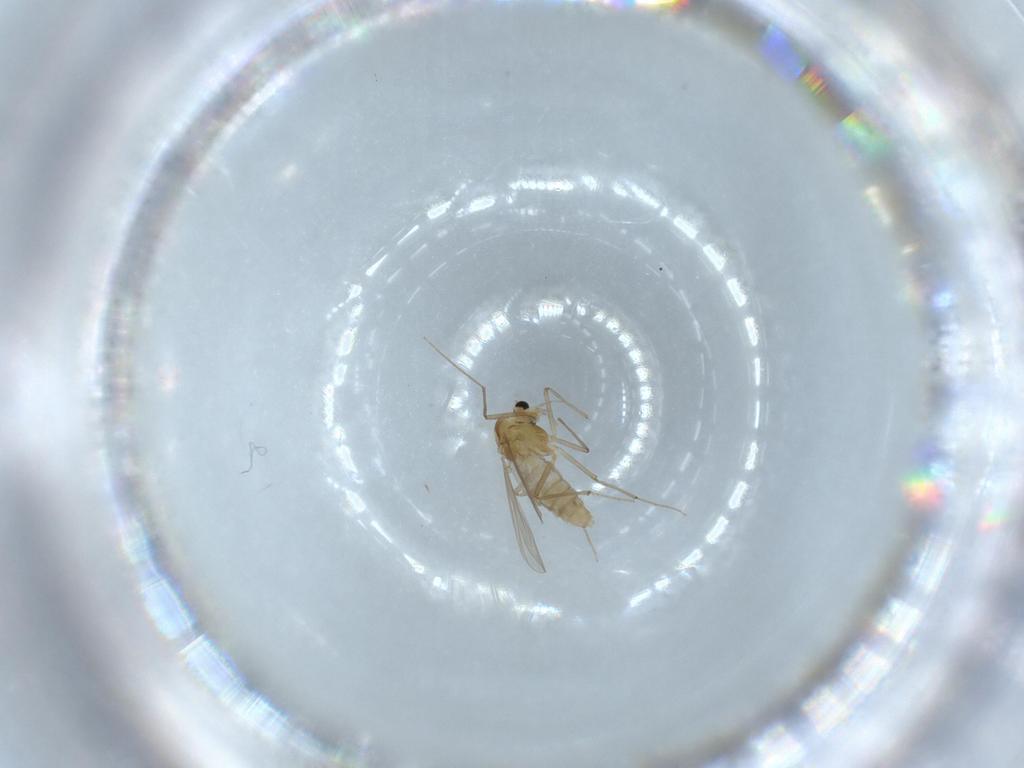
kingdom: Animalia
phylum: Arthropoda
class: Insecta
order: Diptera
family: Chironomidae
